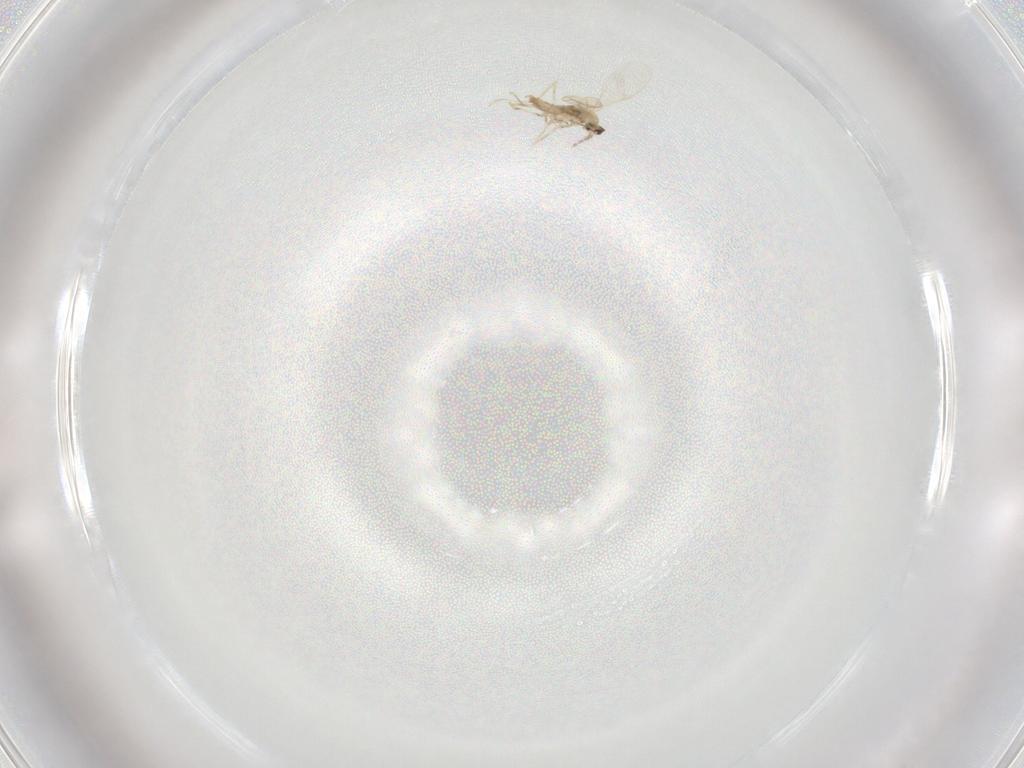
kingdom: Animalia
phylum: Arthropoda
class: Insecta
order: Diptera
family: Cecidomyiidae
